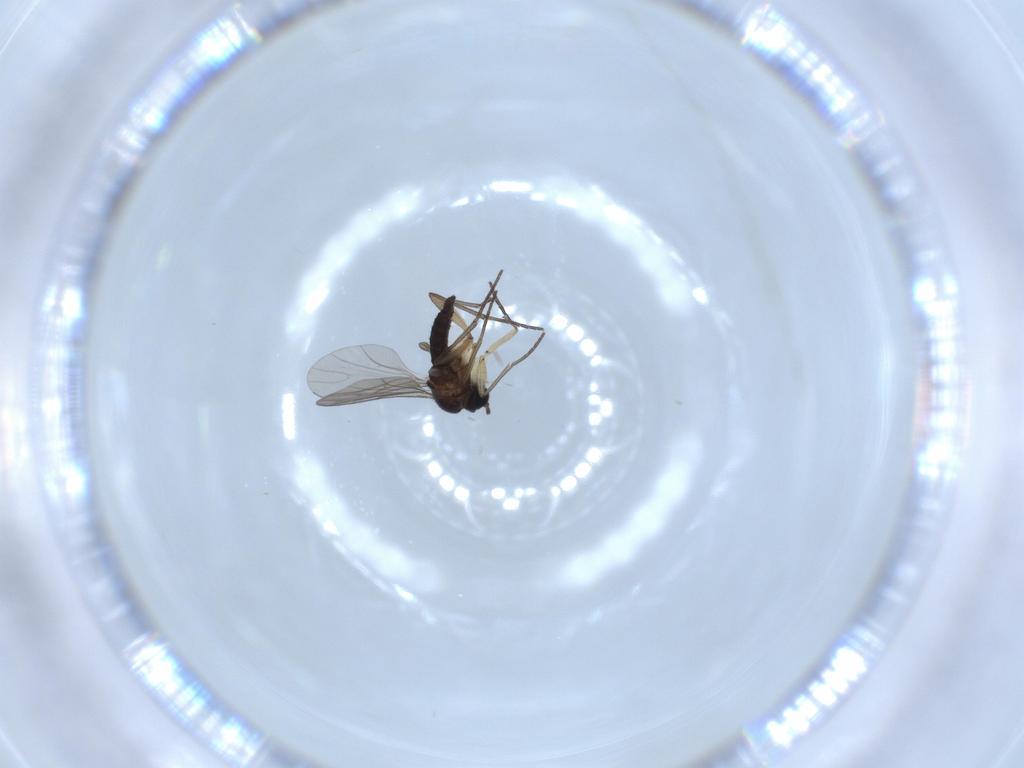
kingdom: Animalia
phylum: Arthropoda
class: Insecta
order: Diptera
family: Sciaridae
